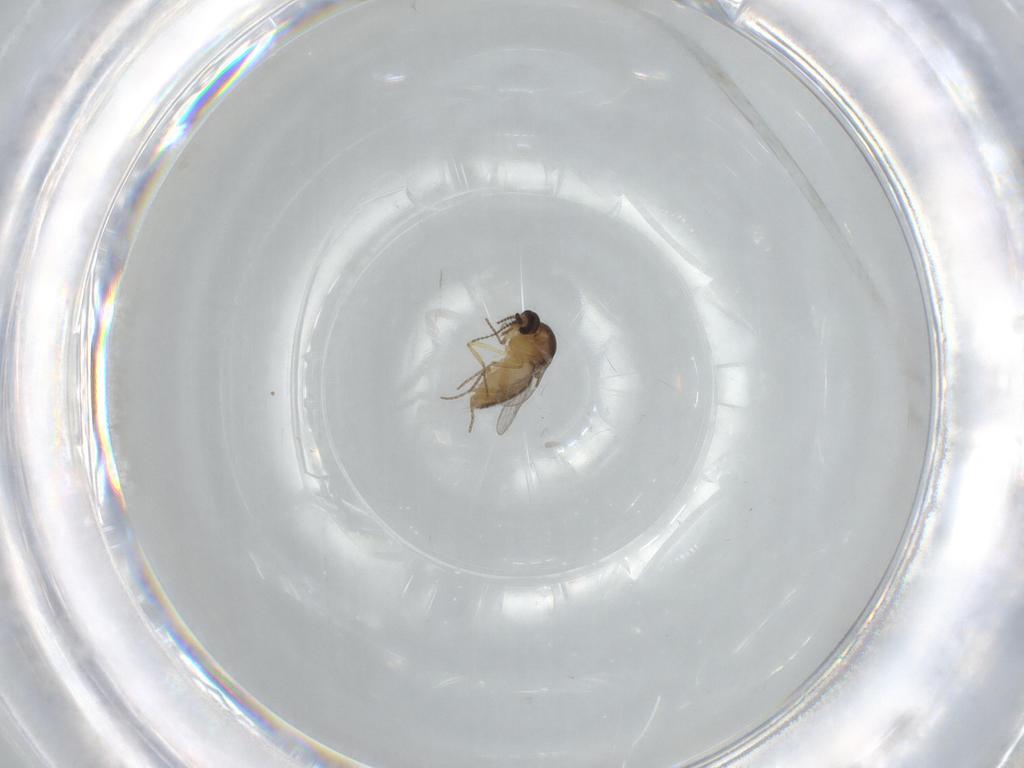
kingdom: Animalia
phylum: Arthropoda
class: Insecta
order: Diptera
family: Ceratopogonidae
